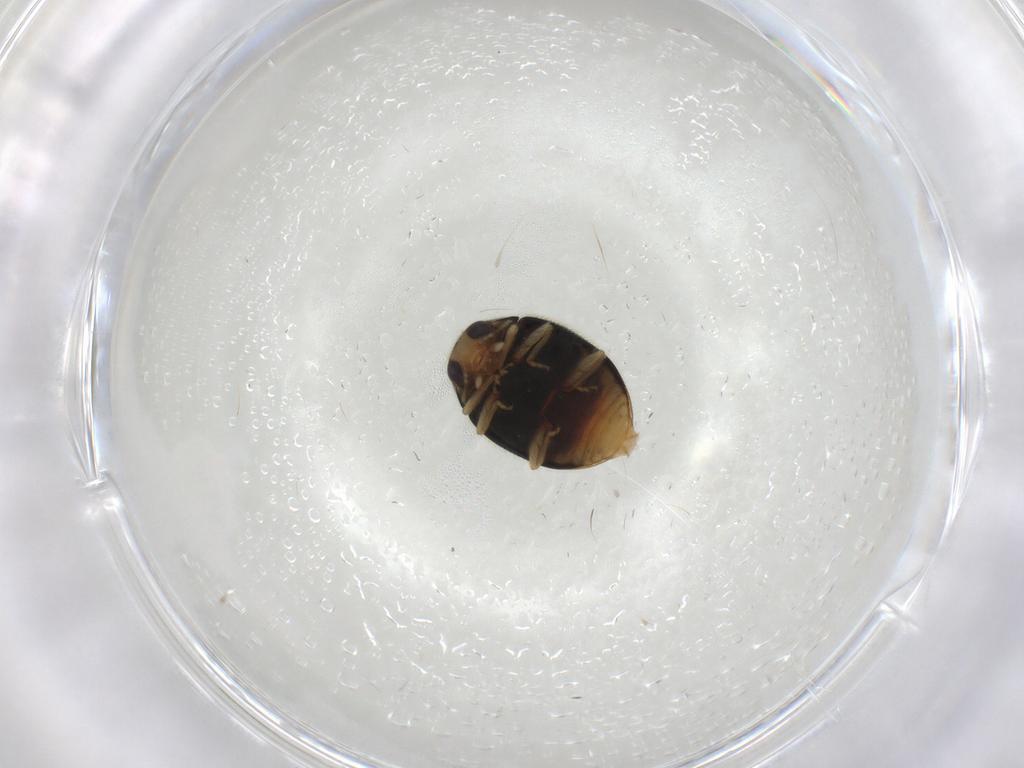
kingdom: Animalia
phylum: Arthropoda
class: Insecta
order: Coleoptera
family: Coccinellidae
